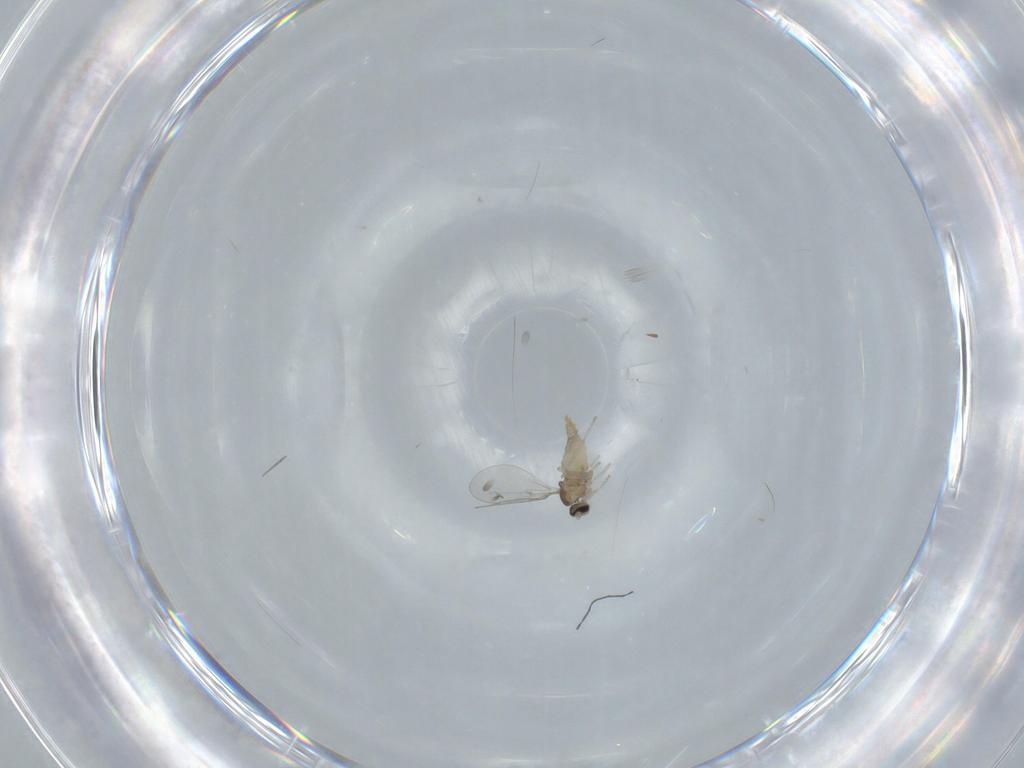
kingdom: Animalia
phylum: Arthropoda
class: Insecta
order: Diptera
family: Cecidomyiidae
